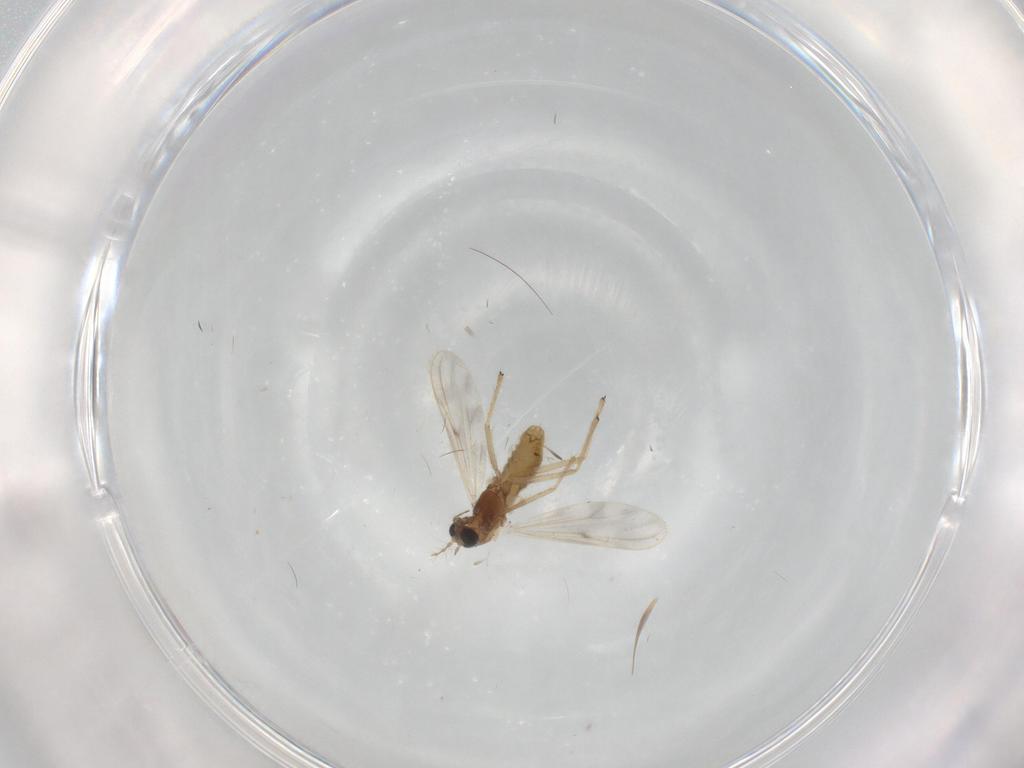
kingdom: Animalia
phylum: Arthropoda
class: Insecta
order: Diptera
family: Chironomidae
